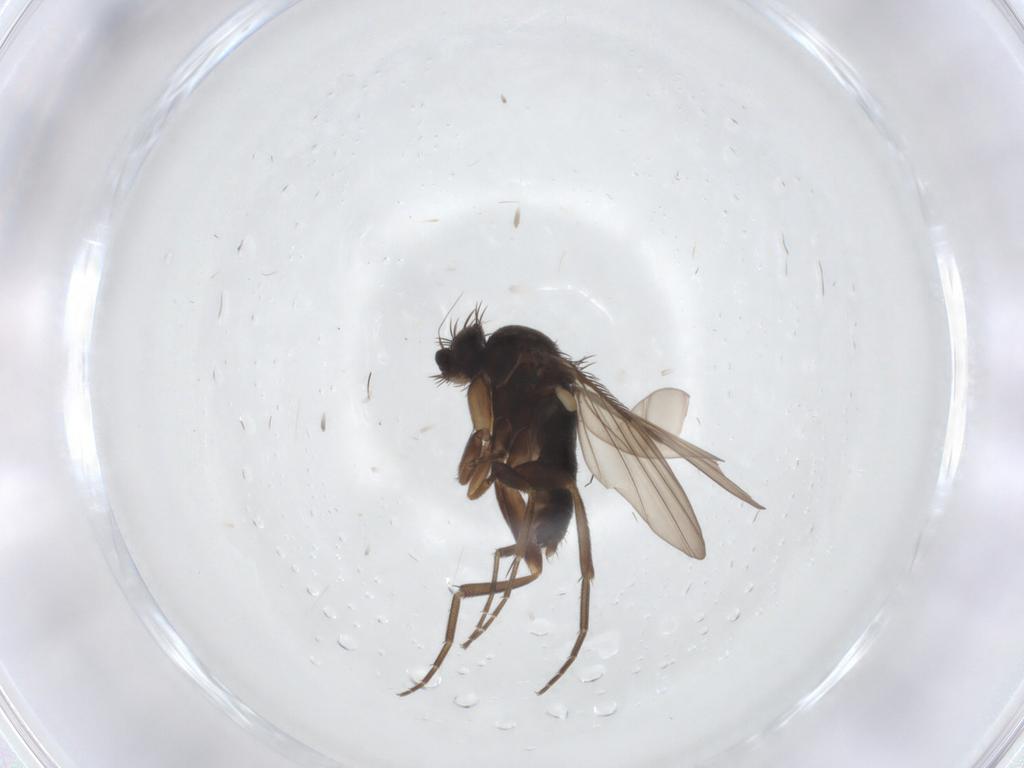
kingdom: Animalia
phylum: Arthropoda
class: Insecta
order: Diptera
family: Phoridae
